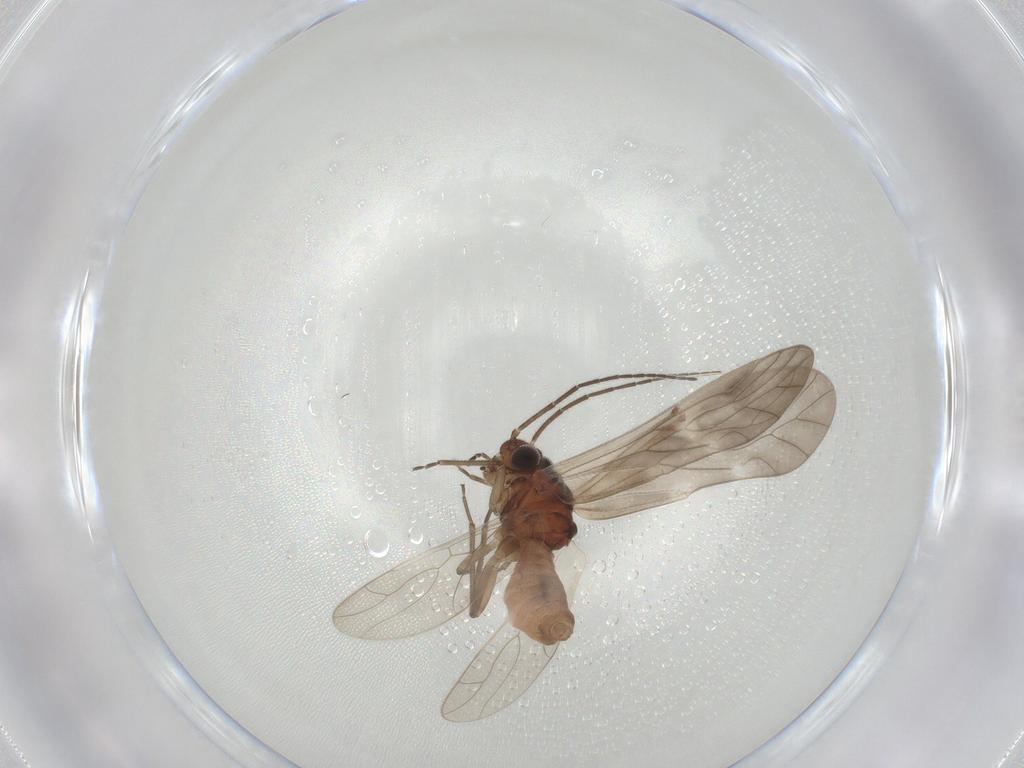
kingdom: Animalia
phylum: Arthropoda
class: Insecta
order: Psocodea
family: Caeciliusidae
